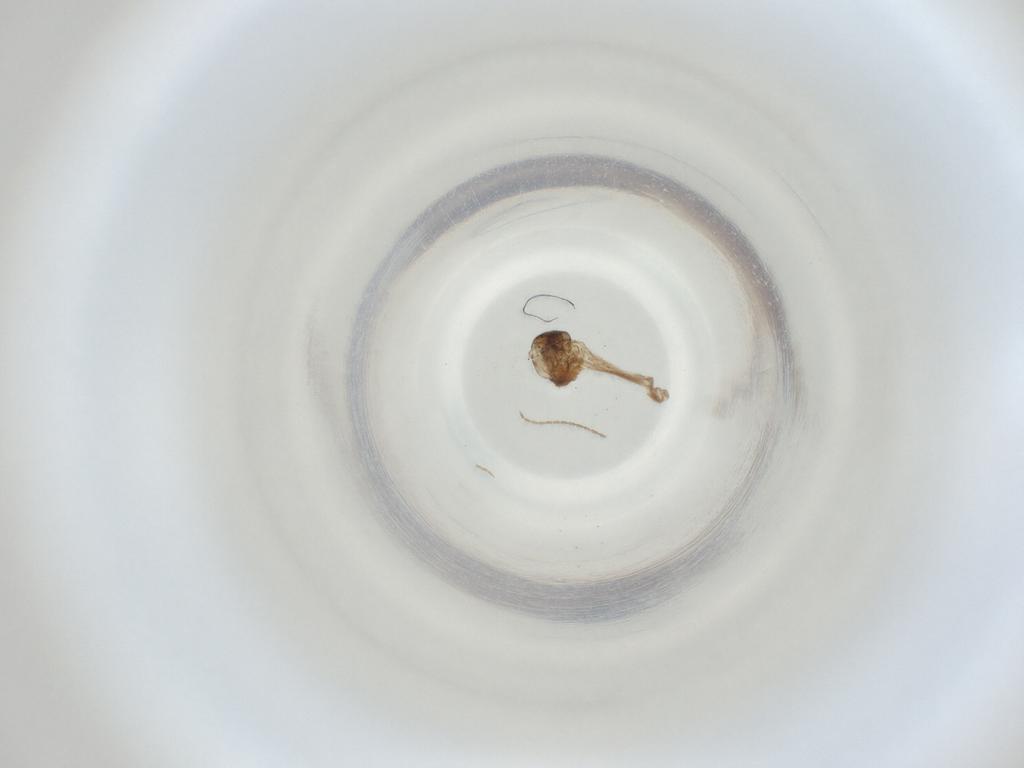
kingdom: Animalia
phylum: Arthropoda
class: Insecta
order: Diptera
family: Cecidomyiidae
